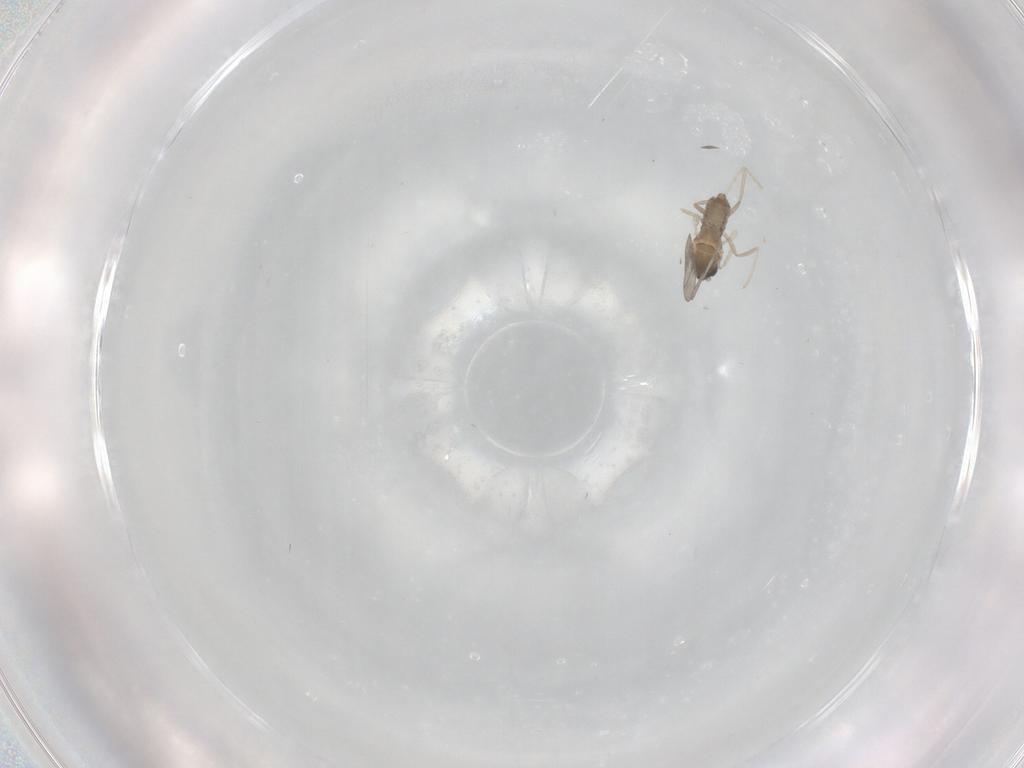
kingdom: Animalia
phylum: Arthropoda
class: Insecta
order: Diptera
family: Cecidomyiidae
